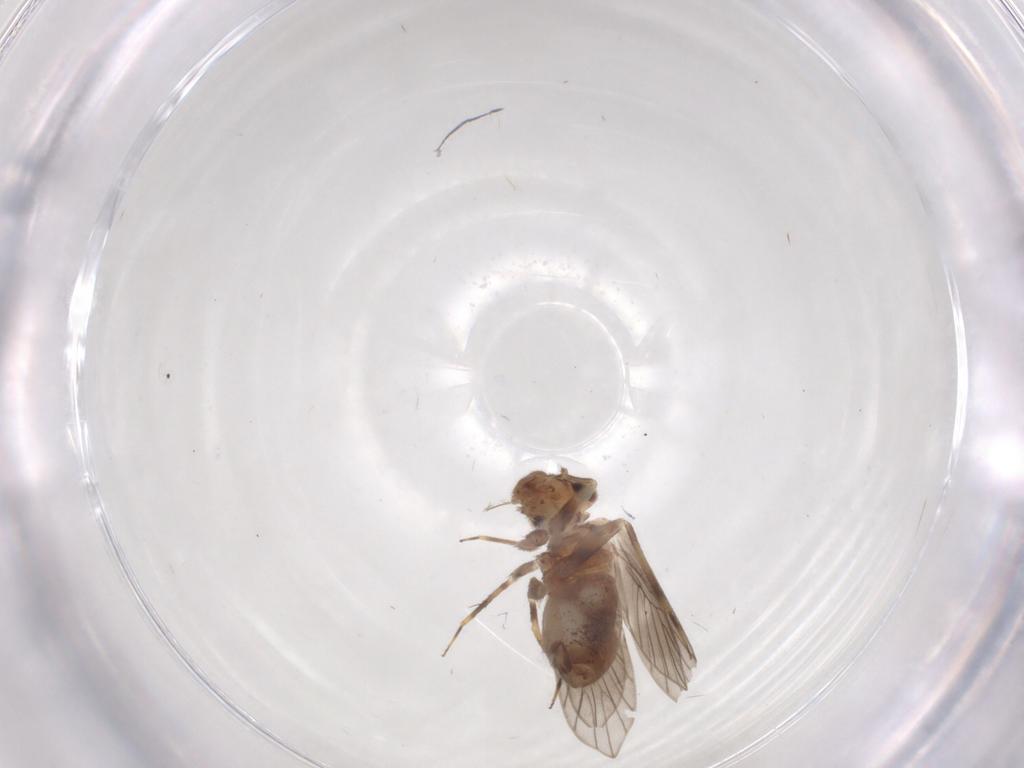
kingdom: Animalia
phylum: Arthropoda
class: Insecta
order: Psocodea
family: Lepidopsocidae
